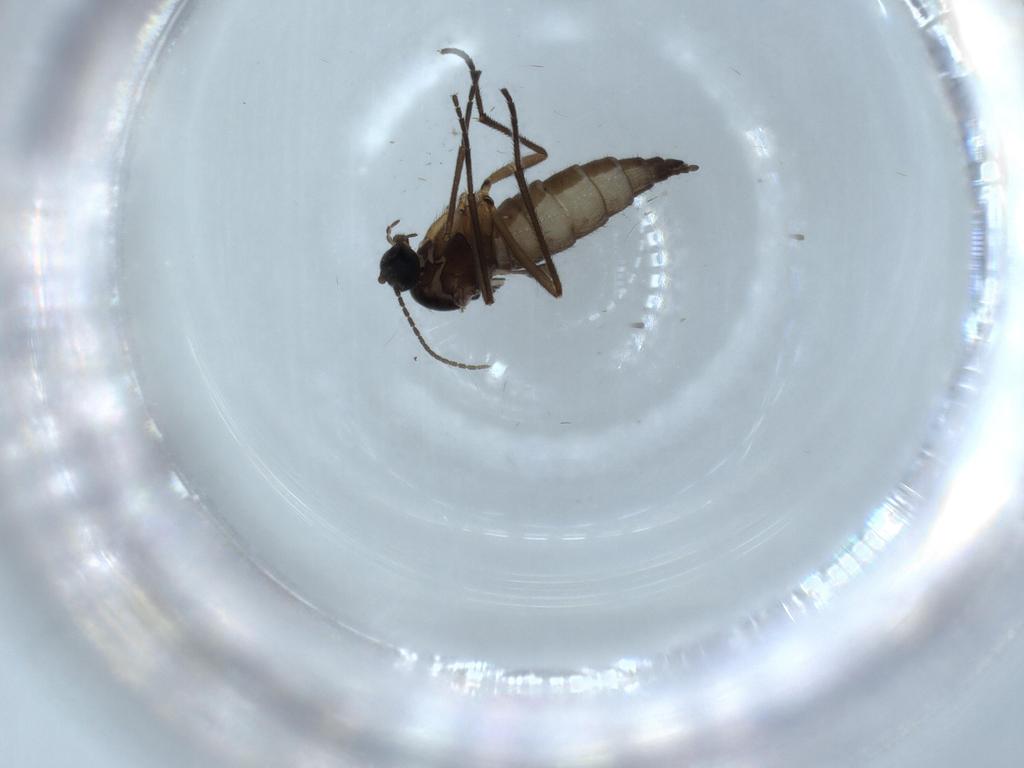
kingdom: Animalia
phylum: Arthropoda
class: Insecta
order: Diptera
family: Sciaridae
